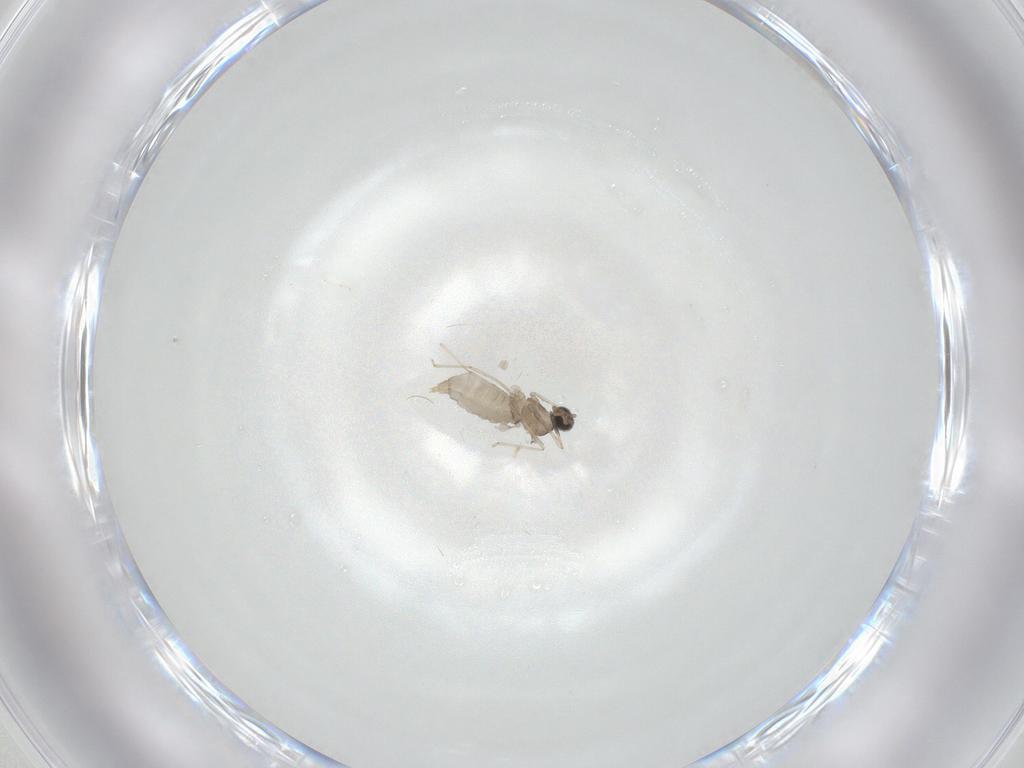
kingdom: Animalia
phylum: Arthropoda
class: Insecta
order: Diptera
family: Cecidomyiidae
